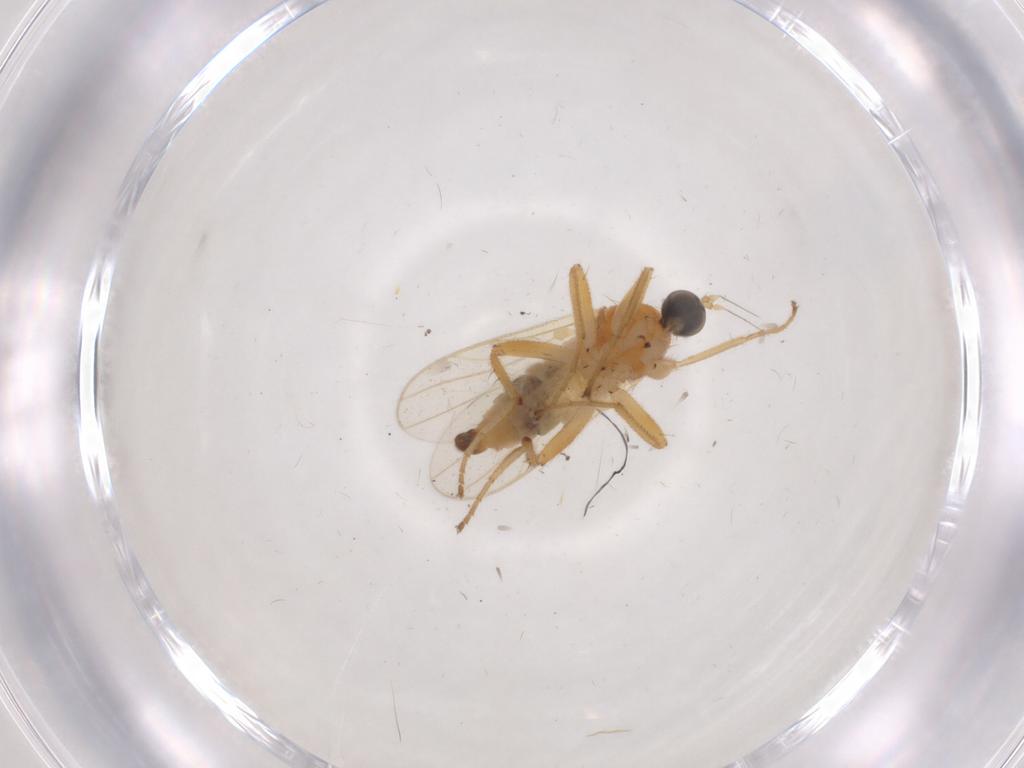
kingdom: Animalia
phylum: Arthropoda
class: Insecta
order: Diptera
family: Hybotidae
